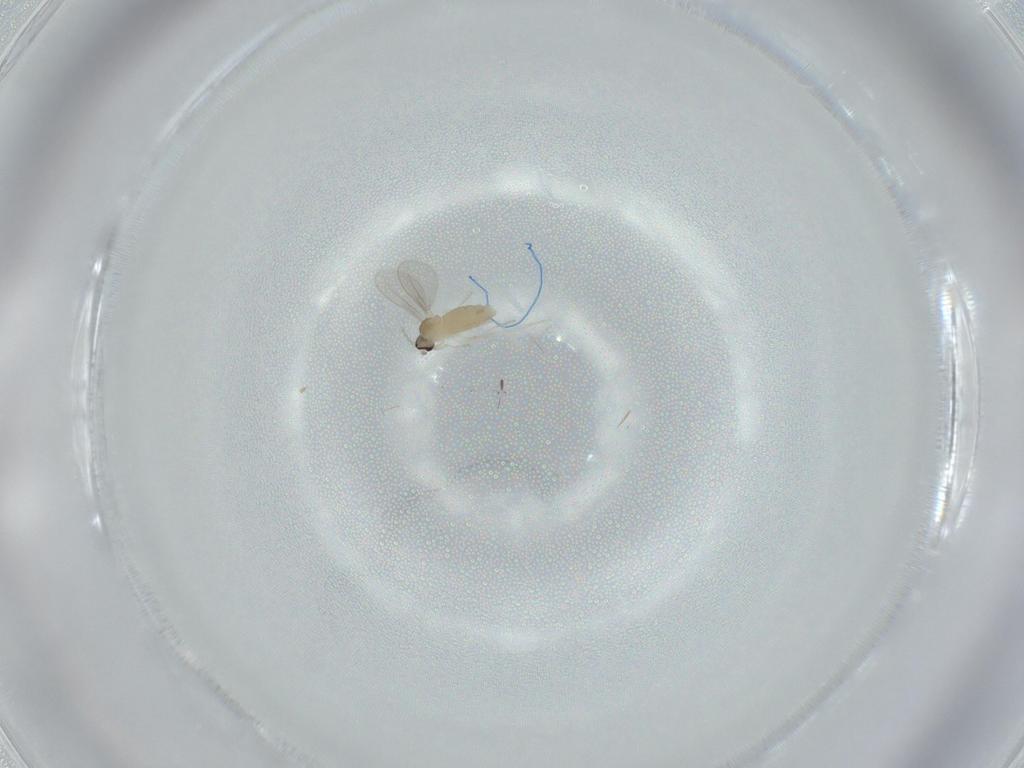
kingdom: Animalia
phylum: Arthropoda
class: Insecta
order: Diptera
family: Cecidomyiidae
